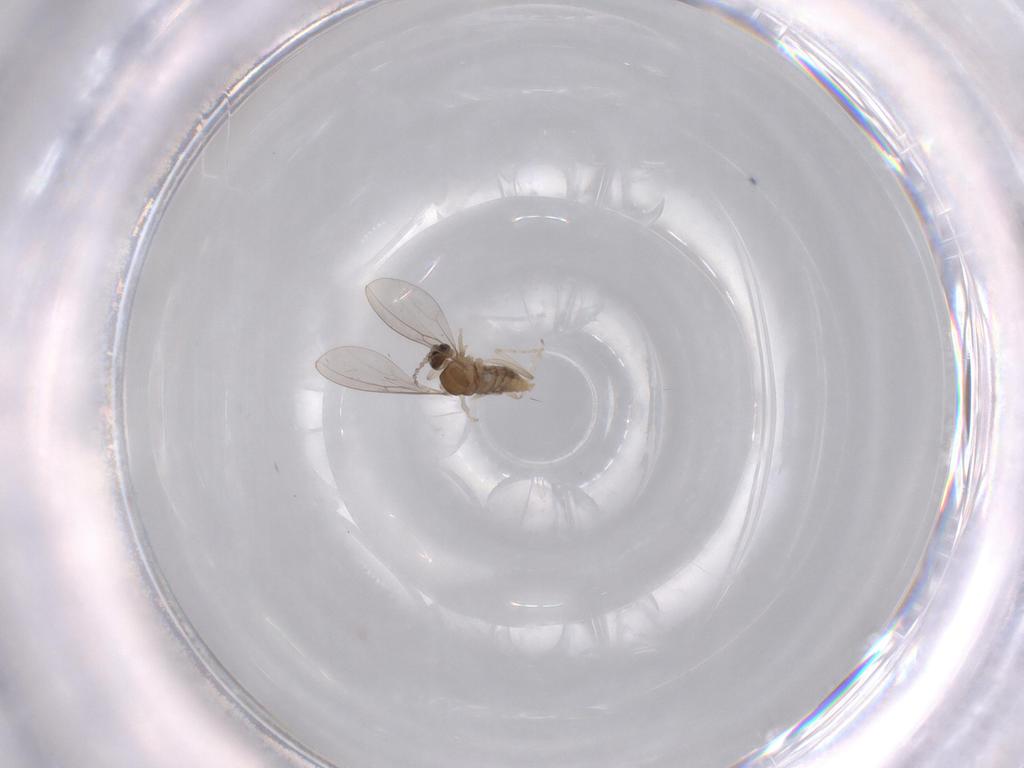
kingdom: Animalia
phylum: Arthropoda
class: Insecta
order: Diptera
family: Cecidomyiidae
